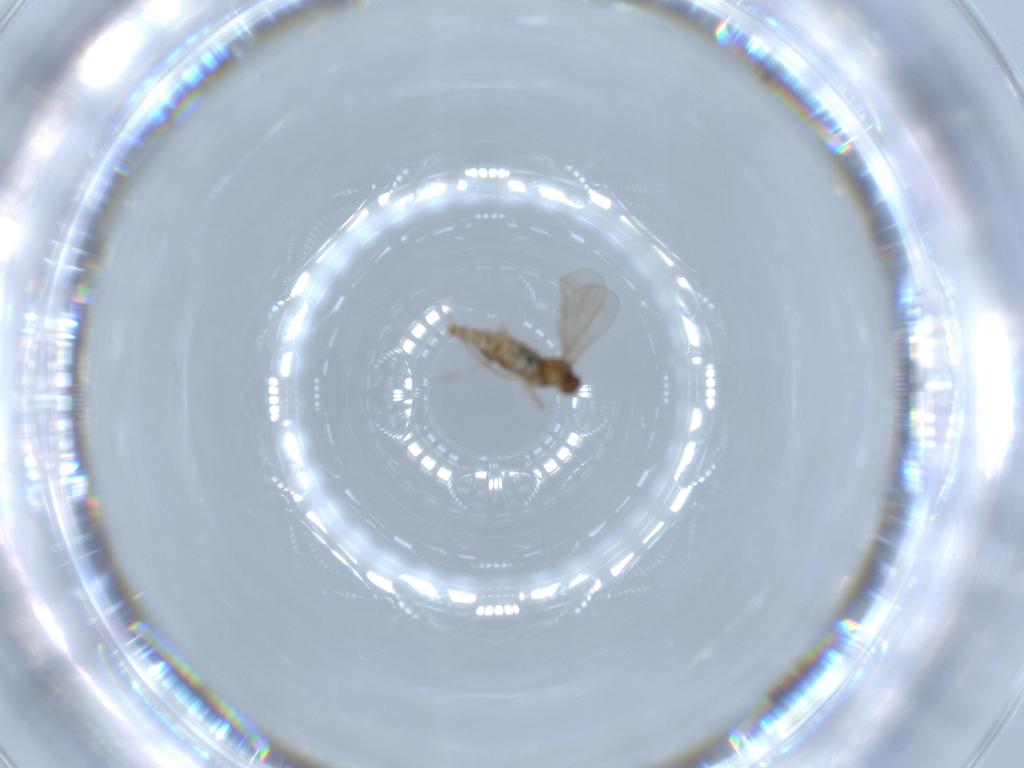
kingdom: Animalia
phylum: Arthropoda
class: Insecta
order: Diptera
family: Cecidomyiidae
